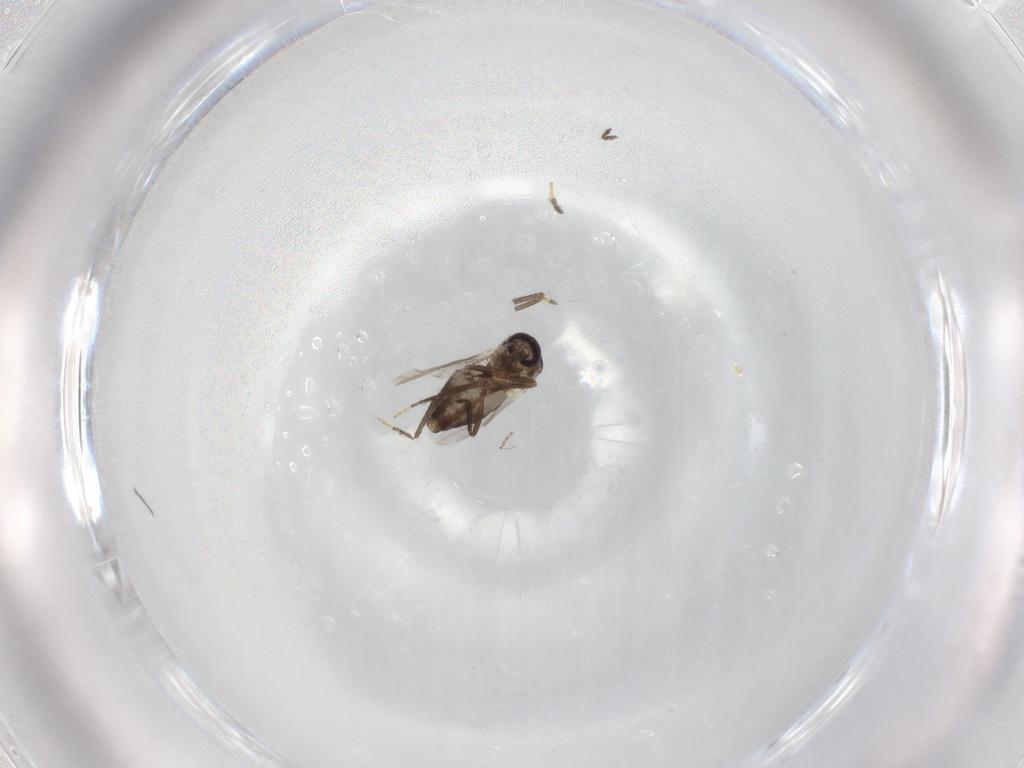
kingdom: Animalia
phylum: Arthropoda
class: Insecta
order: Diptera
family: Ceratopogonidae
